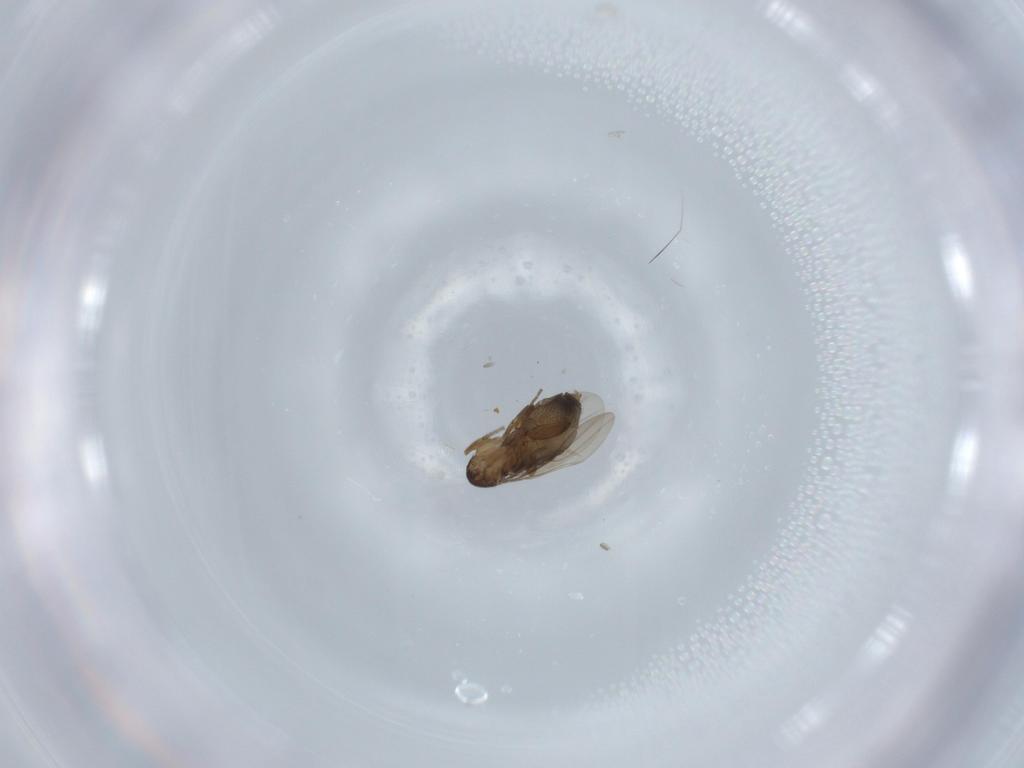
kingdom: Animalia
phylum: Arthropoda
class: Insecta
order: Diptera
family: Phoridae
